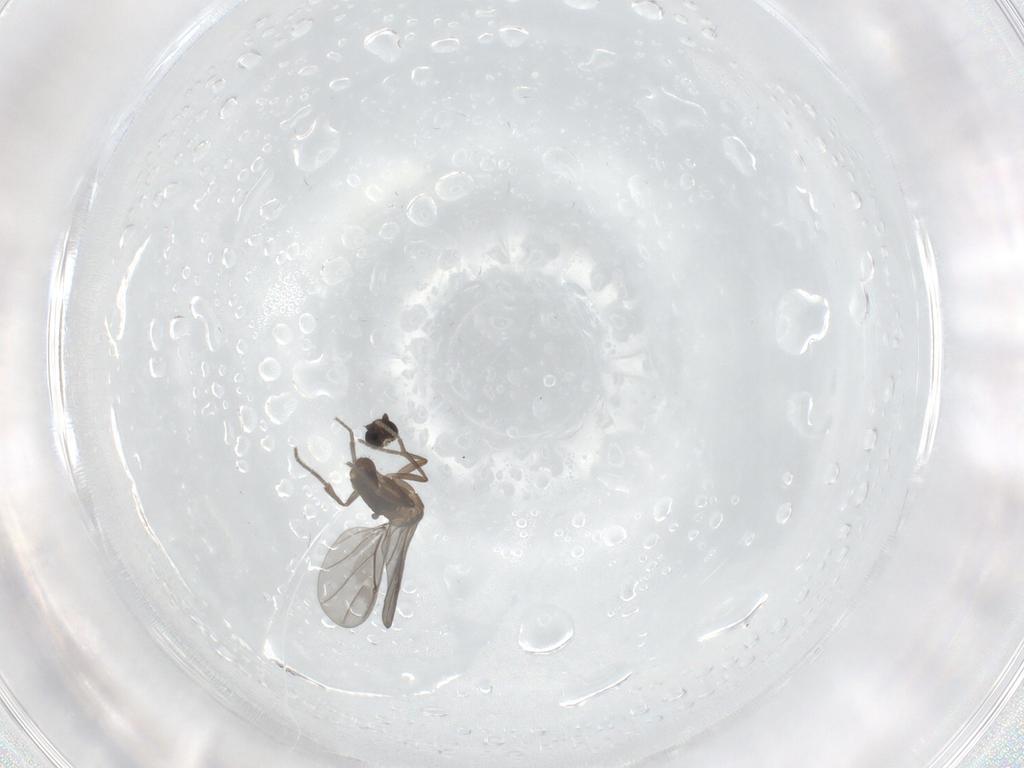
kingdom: Animalia
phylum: Arthropoda
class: Insecta
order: Diptera
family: Phoridae
